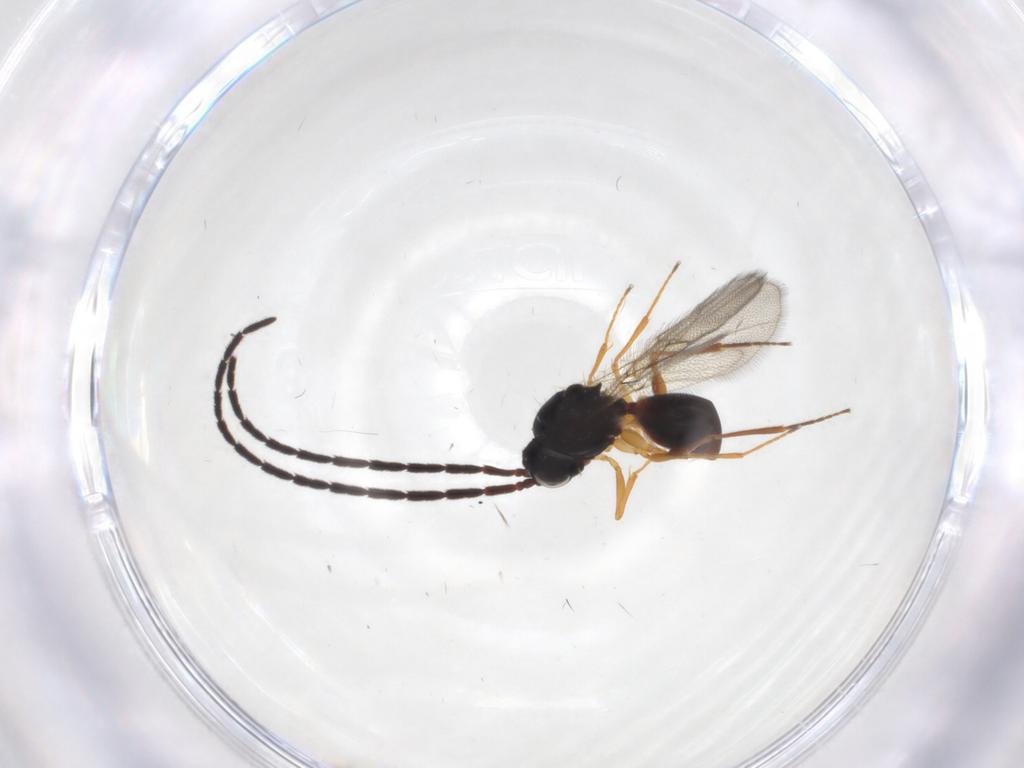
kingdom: Animalia
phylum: Arthropoda
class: Insecta
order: Hymenoptera
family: Figitidae
